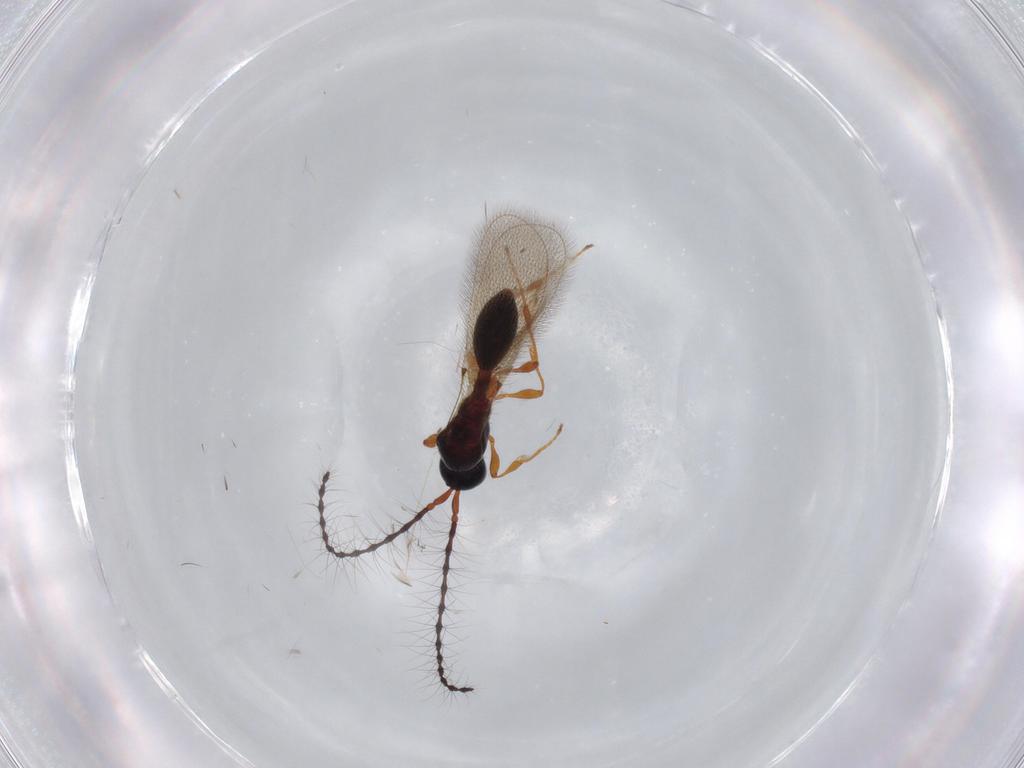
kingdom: Animalia
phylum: Arthropoda
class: Insecta
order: Hymenoptera
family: Diapriidae
